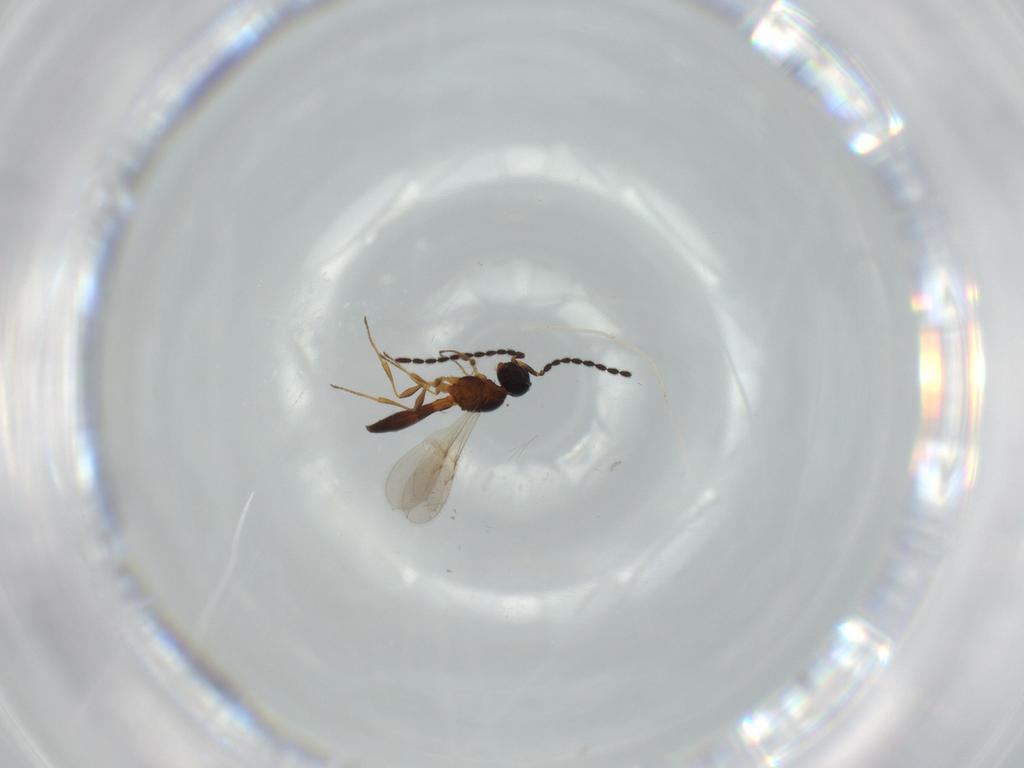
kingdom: Animalia
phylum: Arthropoda
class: Insecta
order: Hymenoptera
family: Scelionidae
